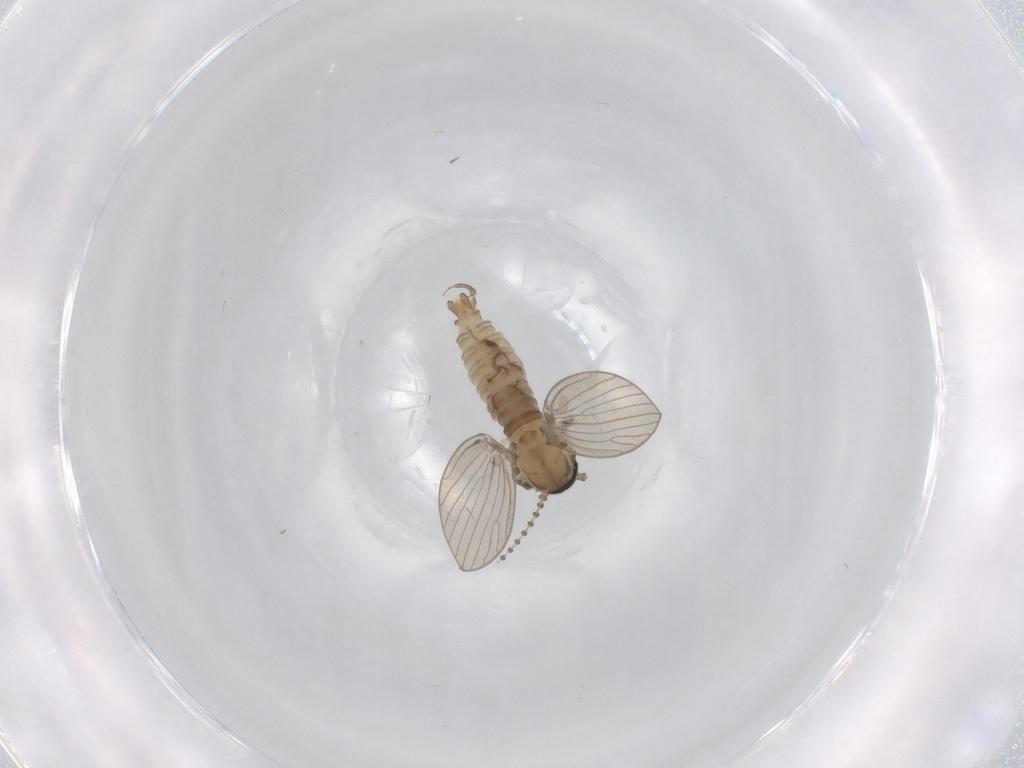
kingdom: Animalia
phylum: Arthropoda
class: Insecta
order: Diptera
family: Psychodidae
